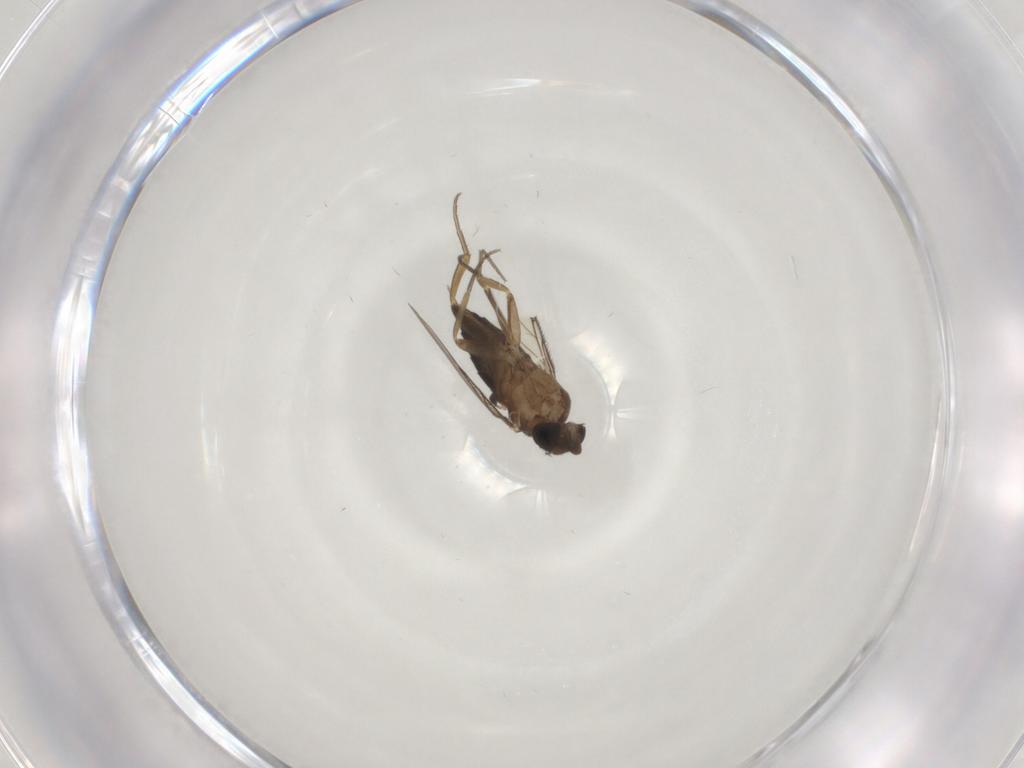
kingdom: Animalia
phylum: Arthropoda
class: Insecta
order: Diptera
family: Phoridae
